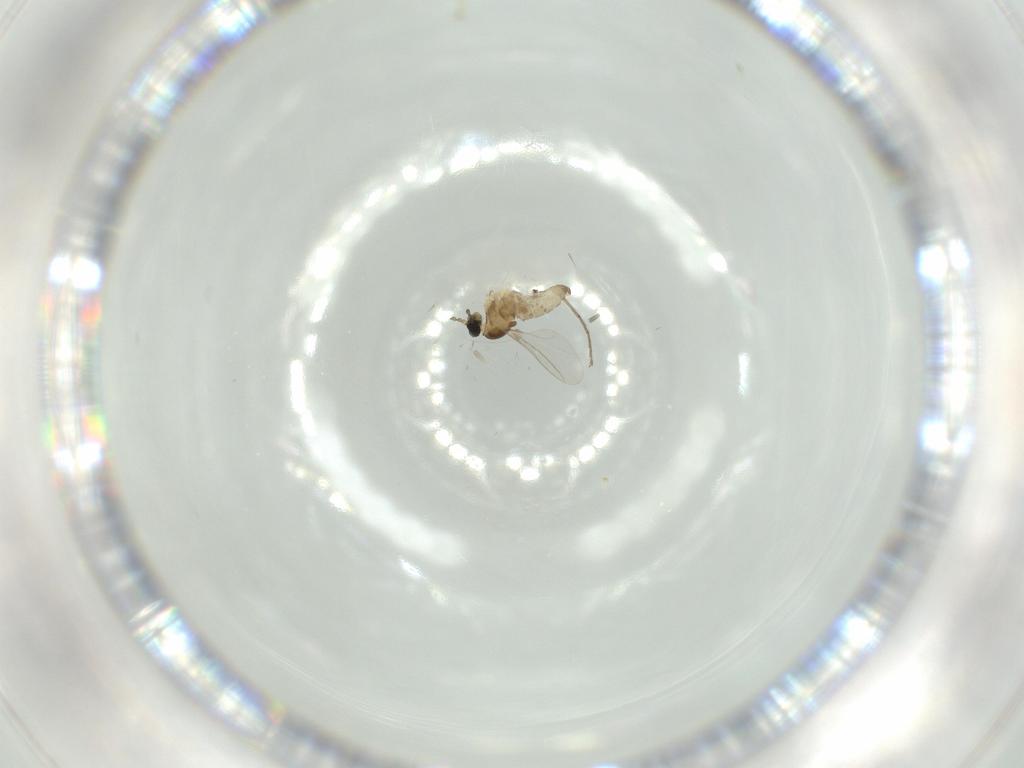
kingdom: Animalia
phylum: Arthropoda
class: Insecta
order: Diptera
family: Cecidomyiidae
